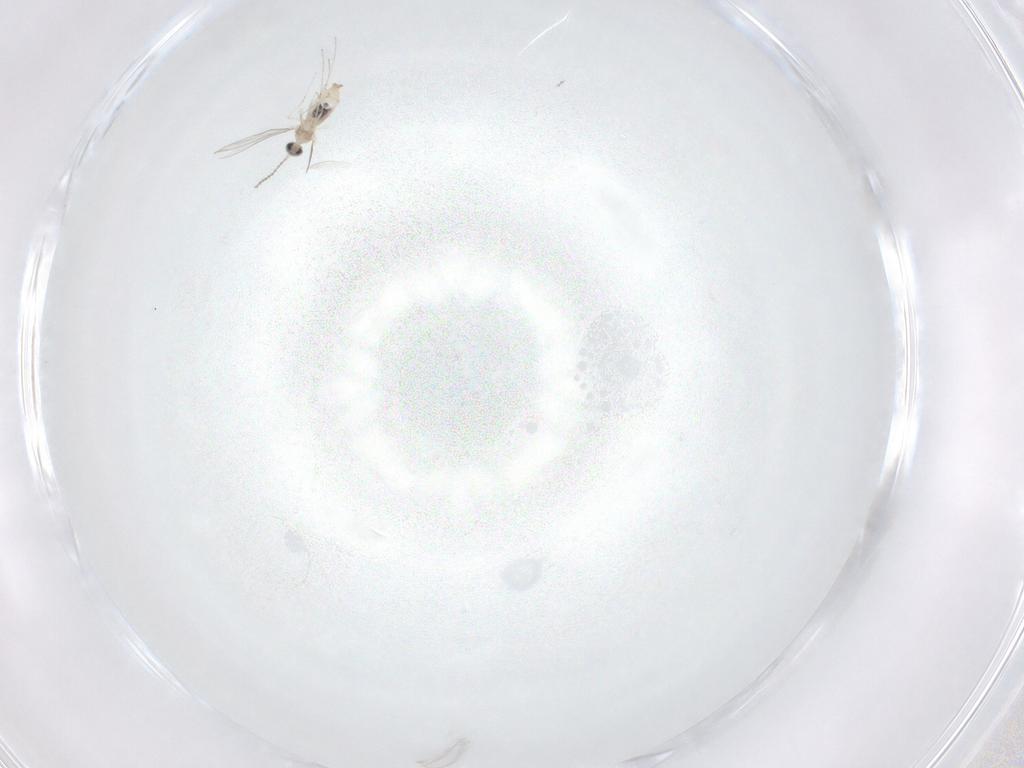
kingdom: Animalia
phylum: Arthropoda
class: Insecta
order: Diptera
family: Cecidomyiidae
